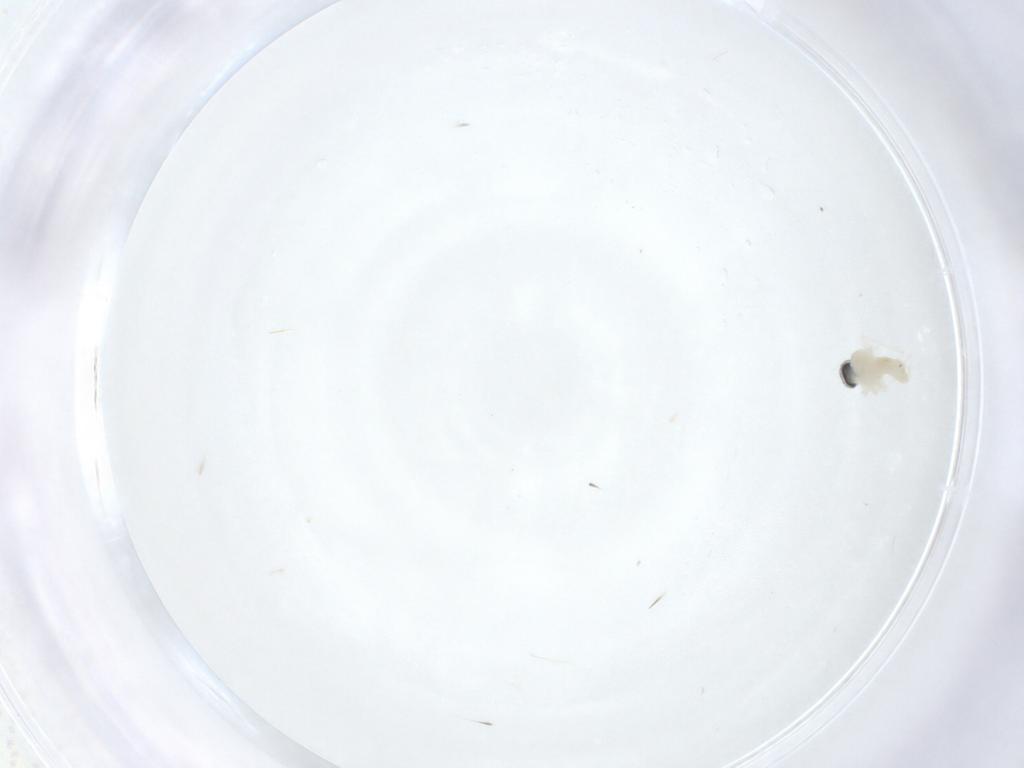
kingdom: Animalia
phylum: Arthropoda
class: Insecta
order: Diptera
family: Cecidomyiidae
